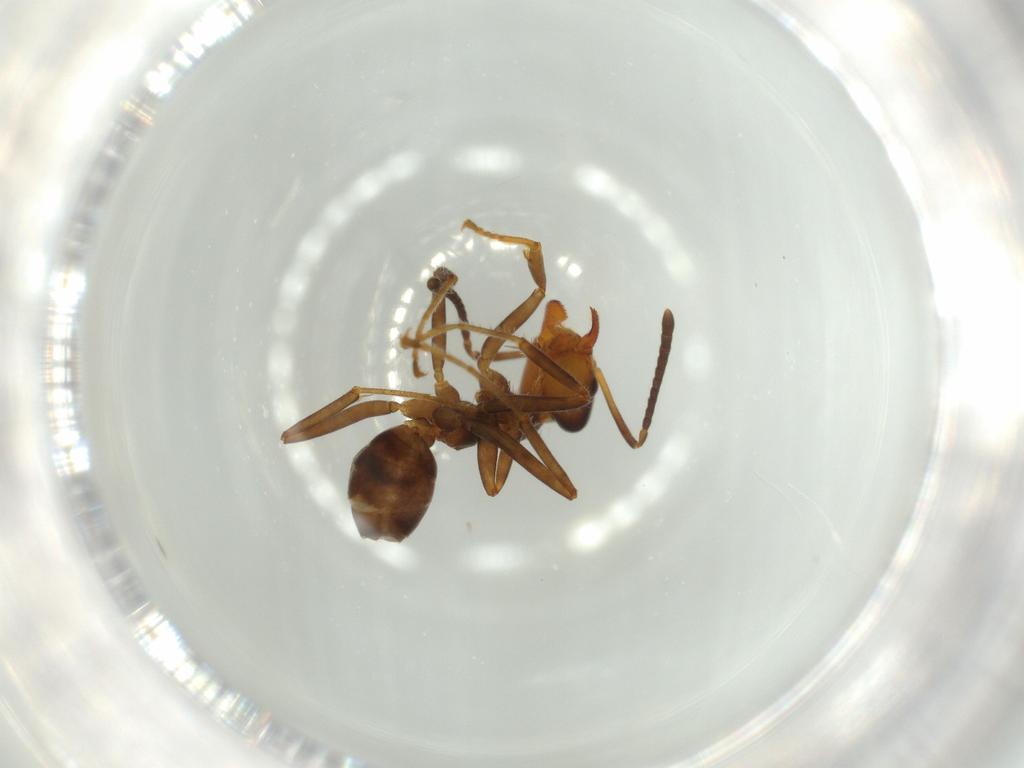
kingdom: Animalia
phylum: Arthropoda
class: Insecta
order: Hymenoptera
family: Formicidae
